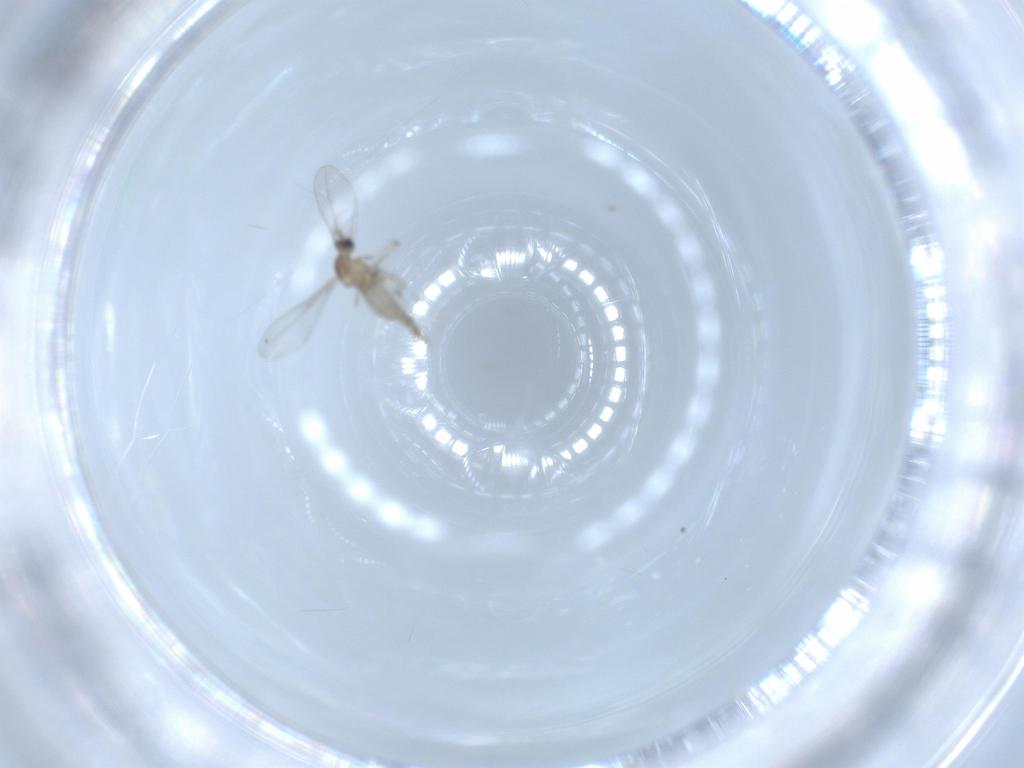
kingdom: Animalia
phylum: Arthropoda
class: Insecta
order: Diptera
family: Cecidomyiidae
